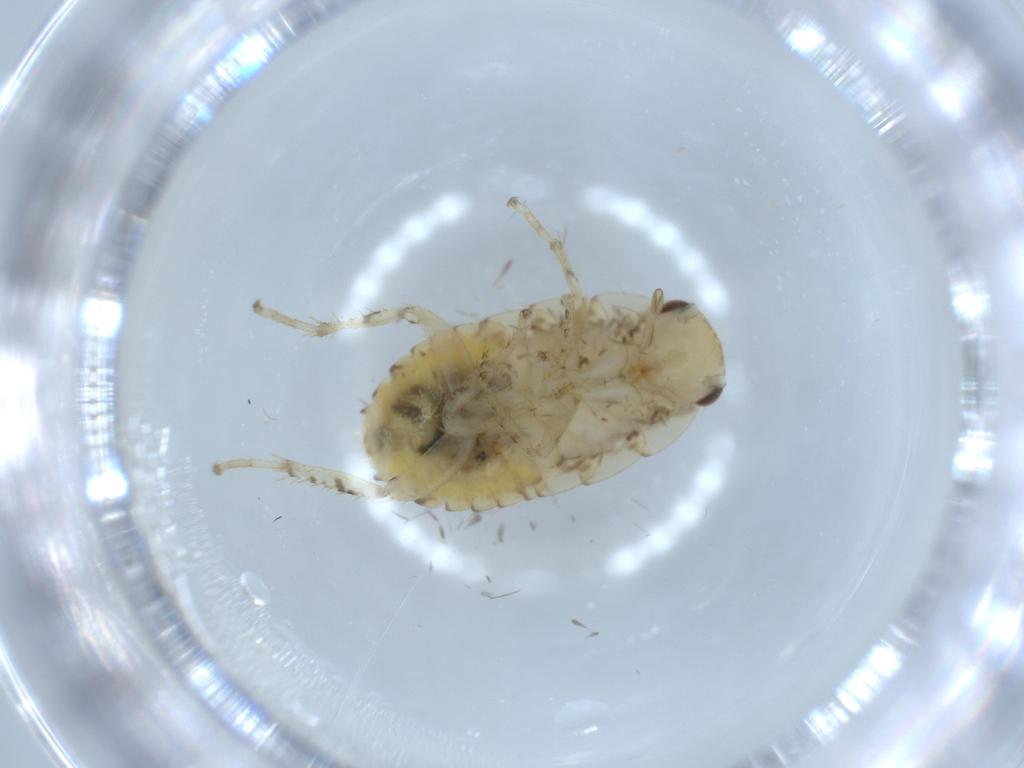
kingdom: Animalia
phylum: Arthropoda
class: Insecta
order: Blattodea
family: Ectobiidae
